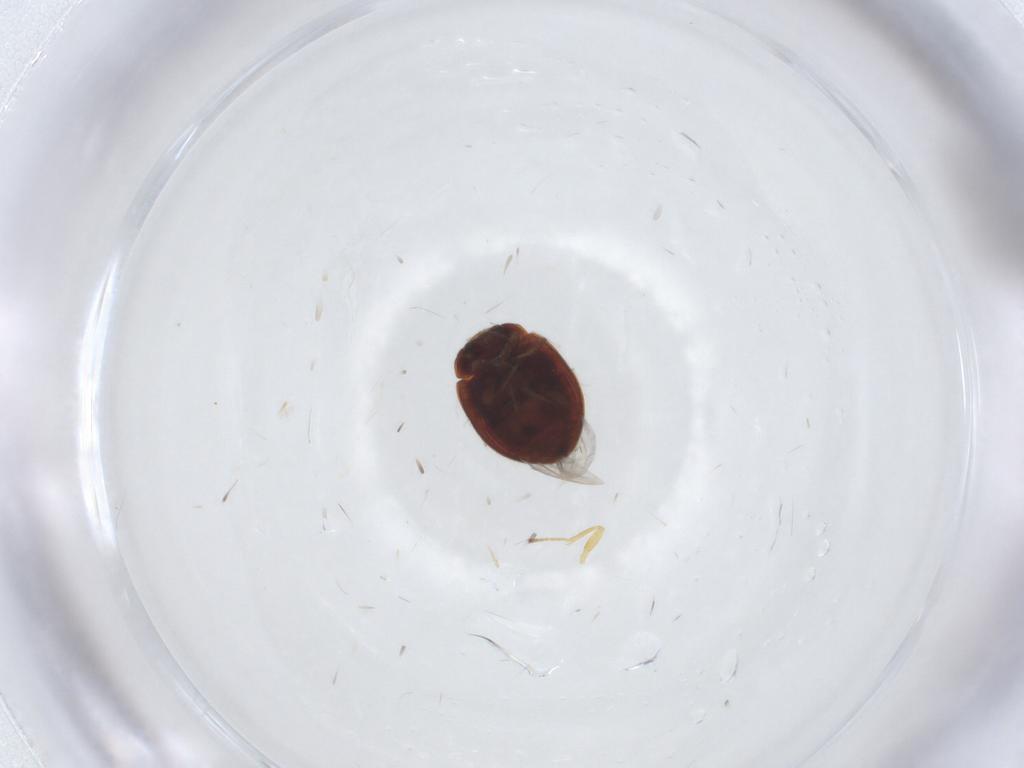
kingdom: Animalia
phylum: Arthropoda
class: Insecta
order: Coleoptera
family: Coccinellidae
